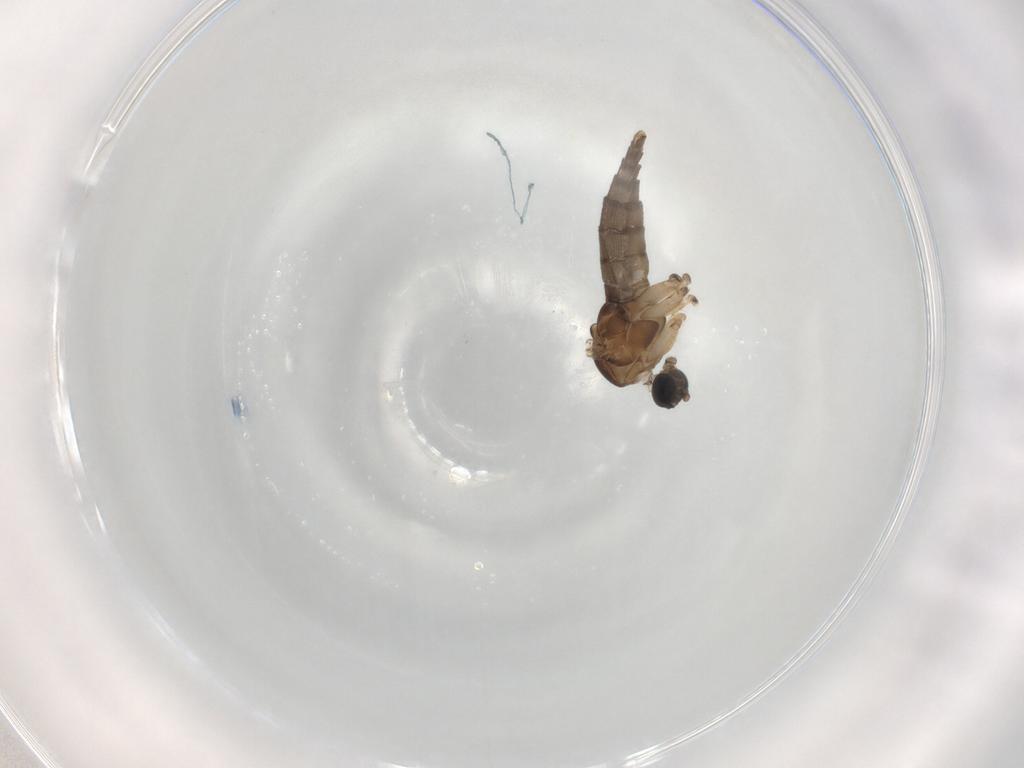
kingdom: Animalia
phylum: Arthropoda
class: Insecta
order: Diptera
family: Sciaridae
